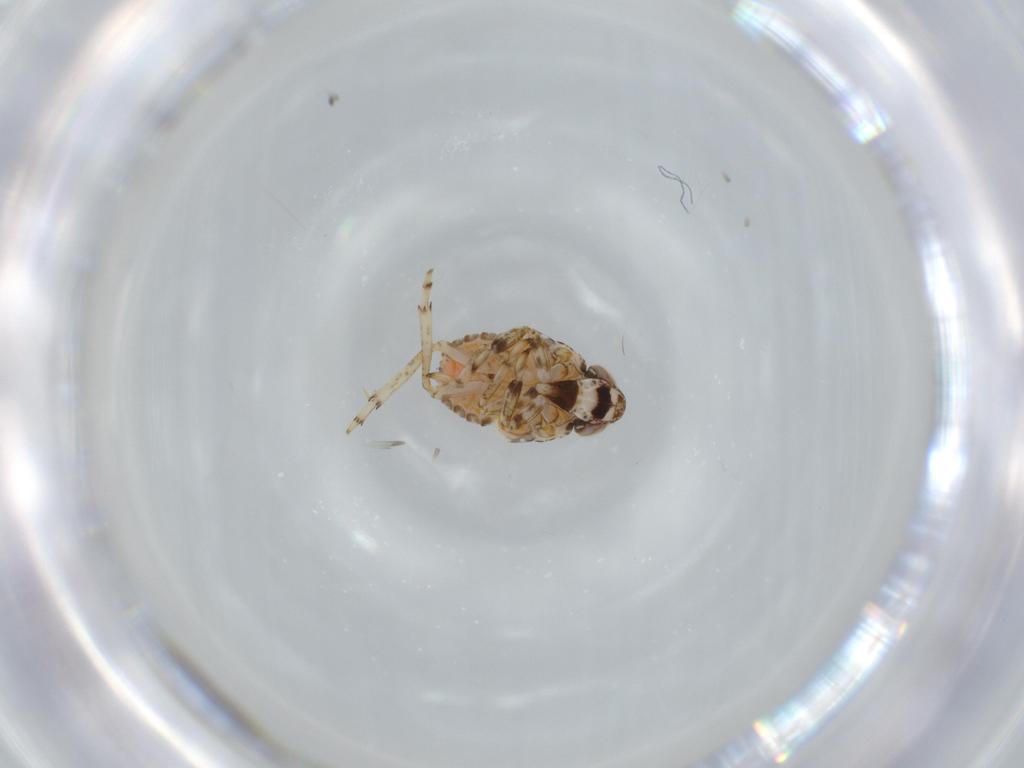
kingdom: Animalia
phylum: Arthropoda
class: Insecta
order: Hemiptera
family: Issidae
